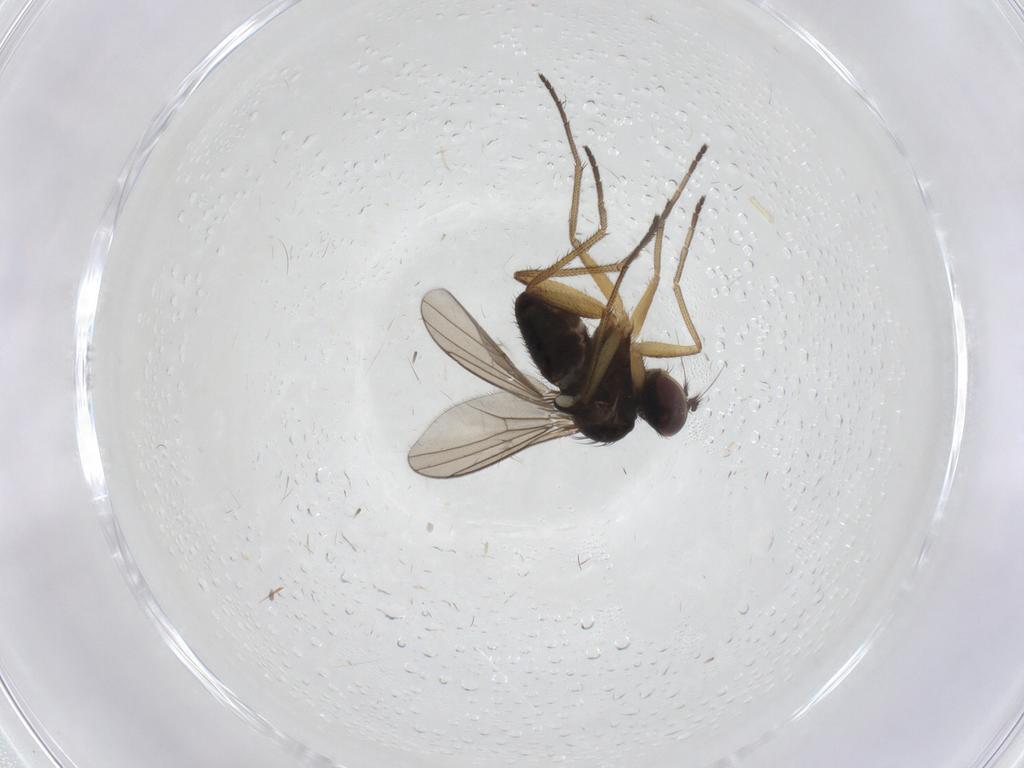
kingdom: Animalia
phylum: Arthropoda
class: Insecta
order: Diptera
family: Dolichopodidae
